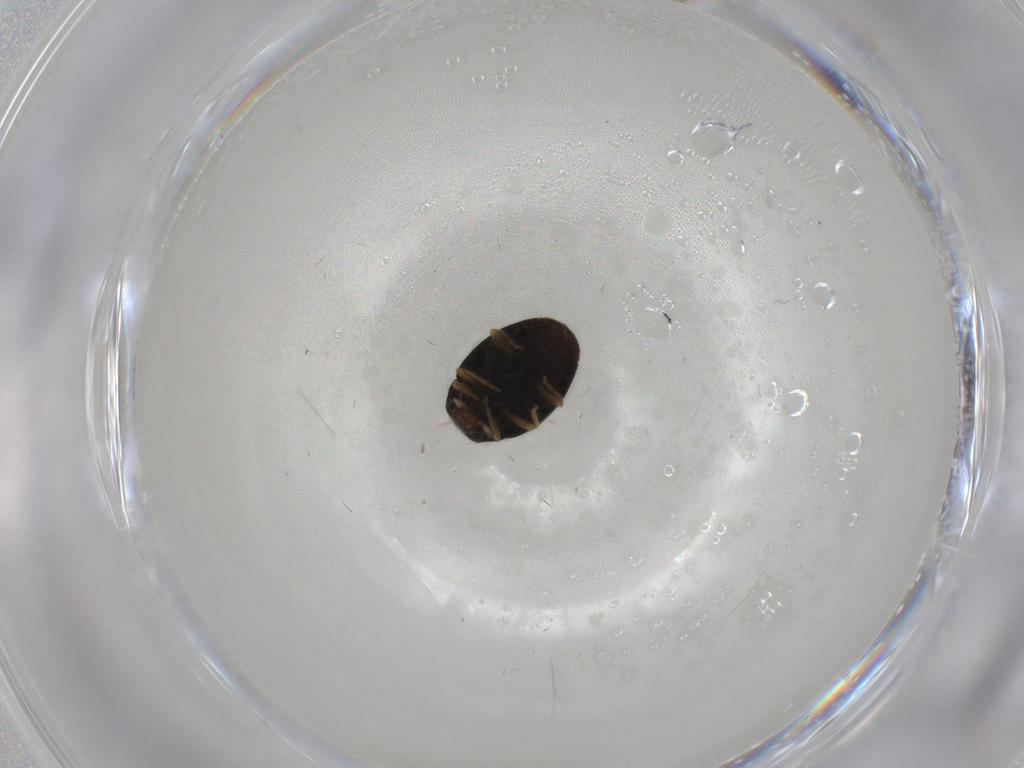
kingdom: Animalia
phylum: Arthropoda
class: Insecta
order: Coleoptera
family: Coccinellidae
